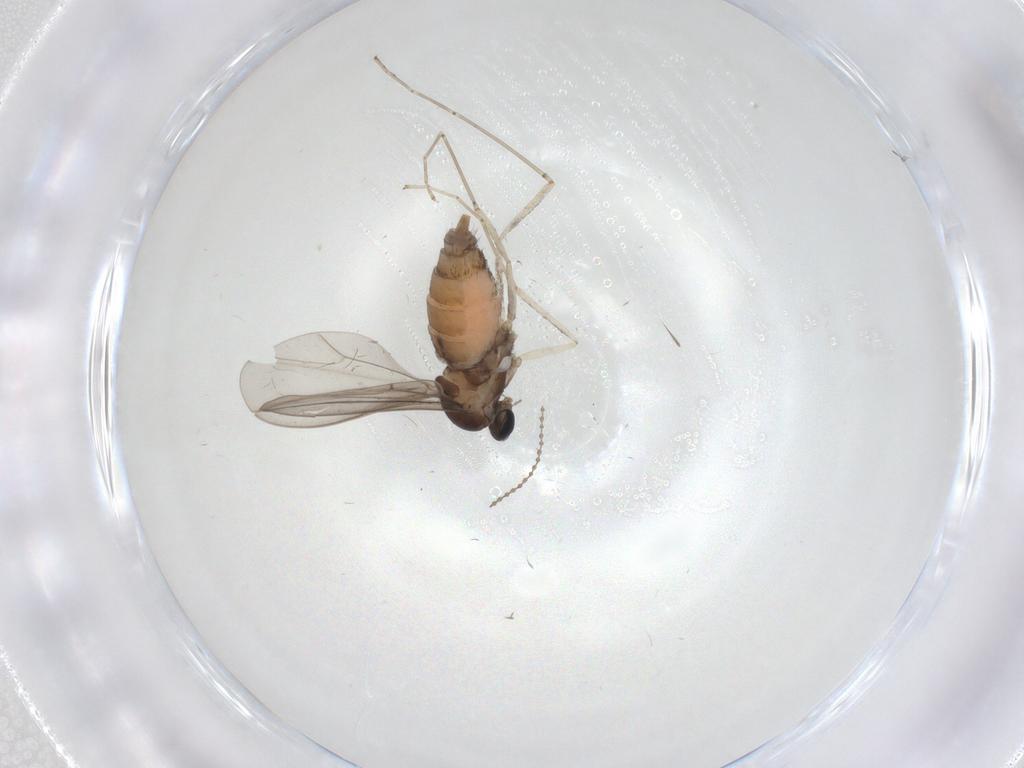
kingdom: Animalia
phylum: Arthropoda
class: Insecta
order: Diptera
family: Cecidomyiidae
